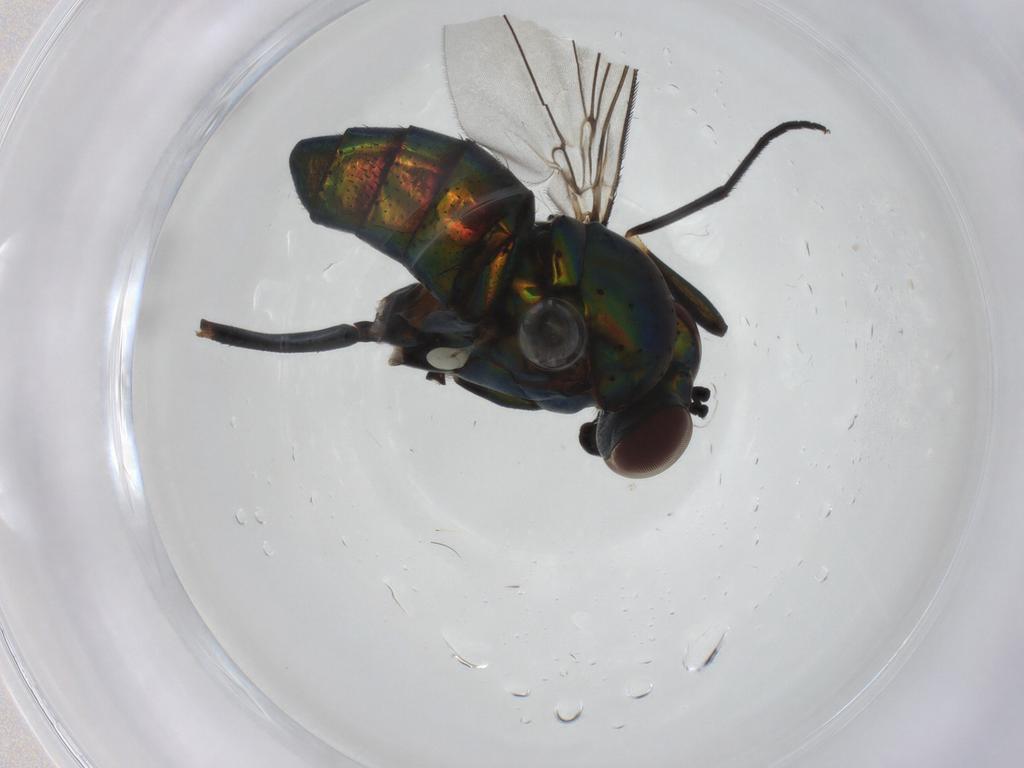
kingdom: Animalia
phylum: Arthropoda
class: Insecta
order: Diptera
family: Dolichopodidae
